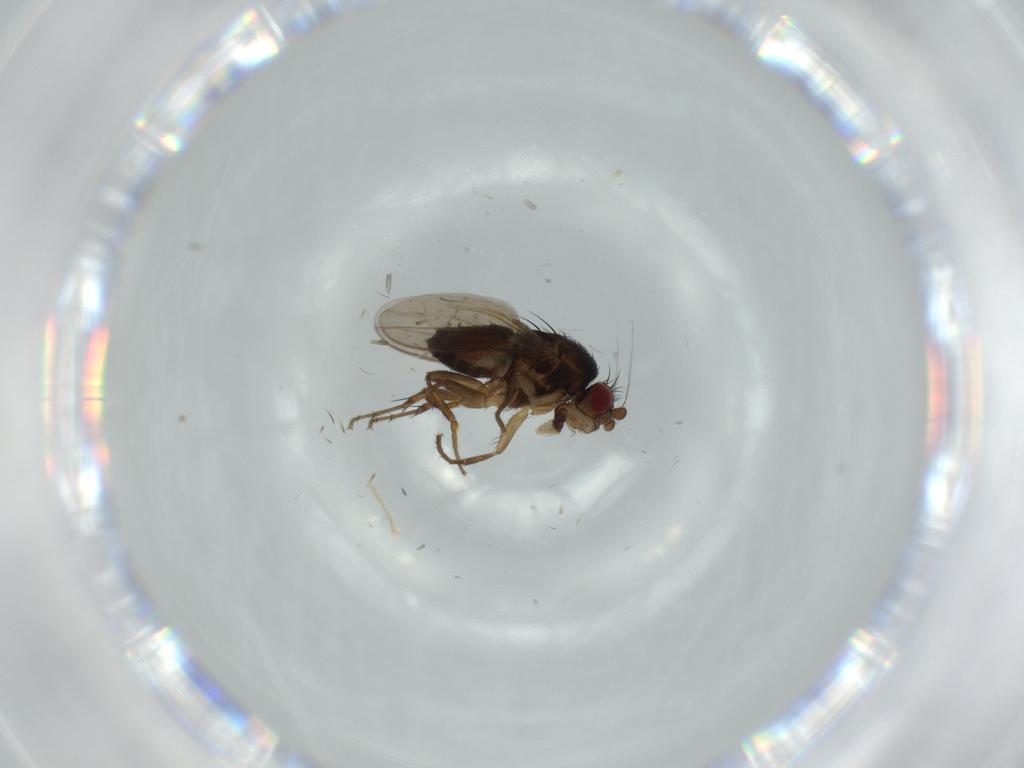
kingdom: Animalia
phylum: Arthropoda
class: Insecta
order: Diptera
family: Sphaeroceridae
